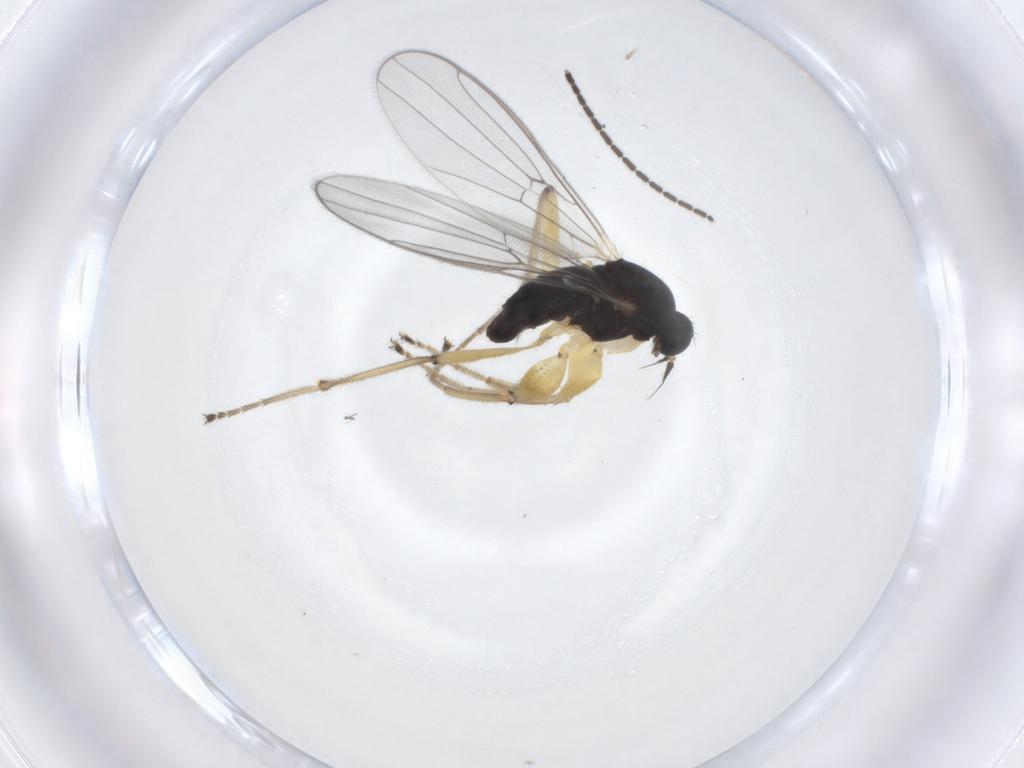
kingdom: Animalia
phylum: Arthropoda
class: Insecta
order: Diptera
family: Hybotidae
